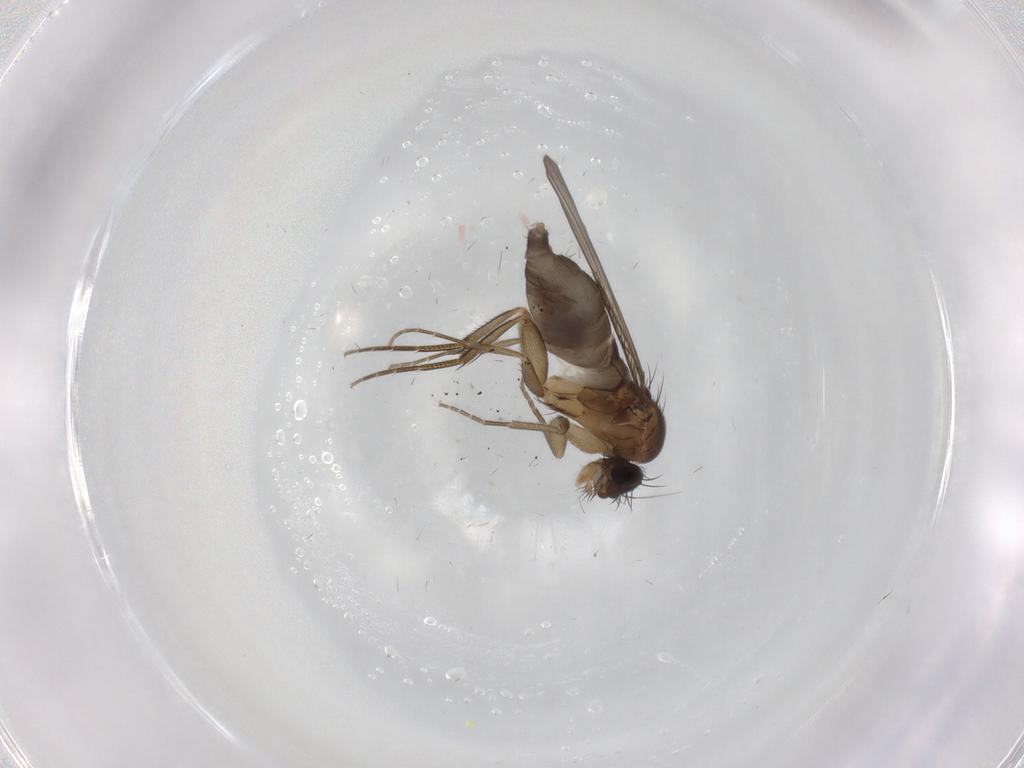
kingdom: Animalia
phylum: Arthropoda
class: Insecta
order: Diptera
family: Phoridae
